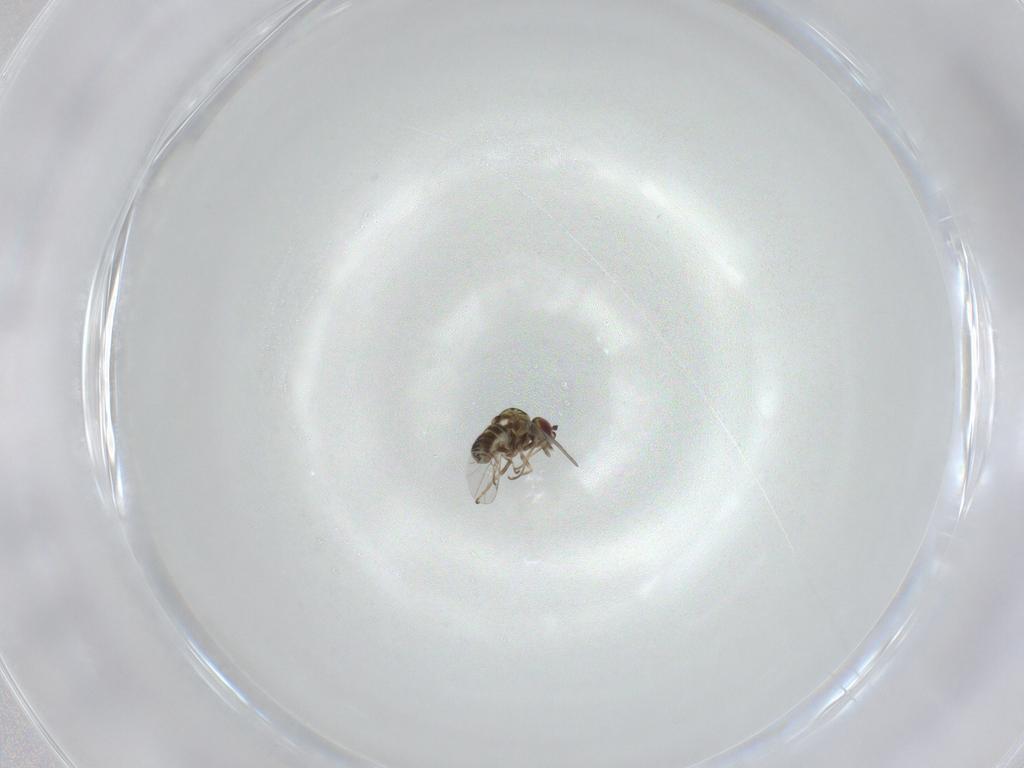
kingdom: Animalia
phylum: Arthropoda
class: Insecta
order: Diptera
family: Bombyliidae
